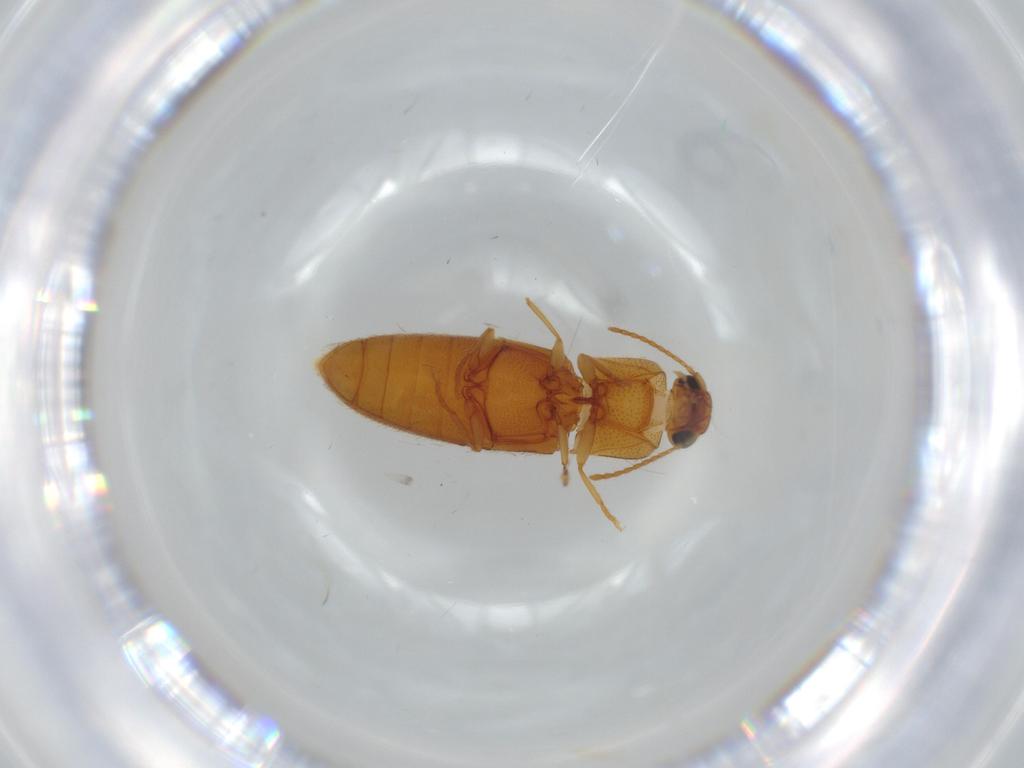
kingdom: Animalia
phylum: Arthropoda
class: Insecta
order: Coleoptera
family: Elateridae
